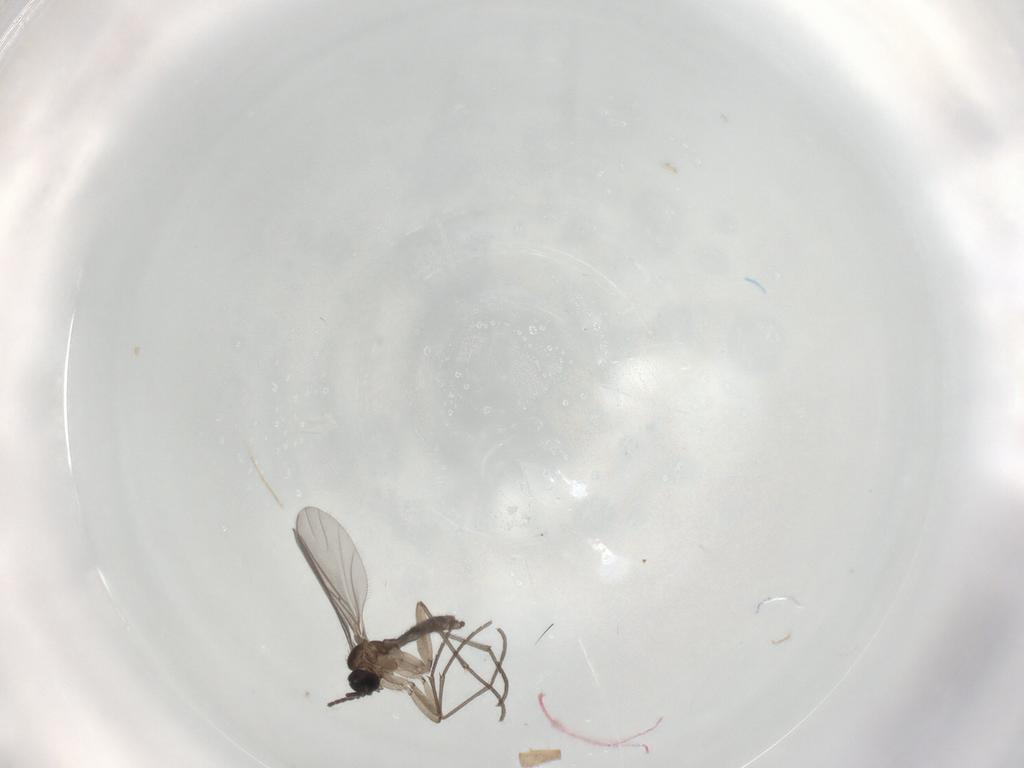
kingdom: Animalia
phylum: Arthropoda
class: Insecta
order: Diptera
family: Sciaridae
